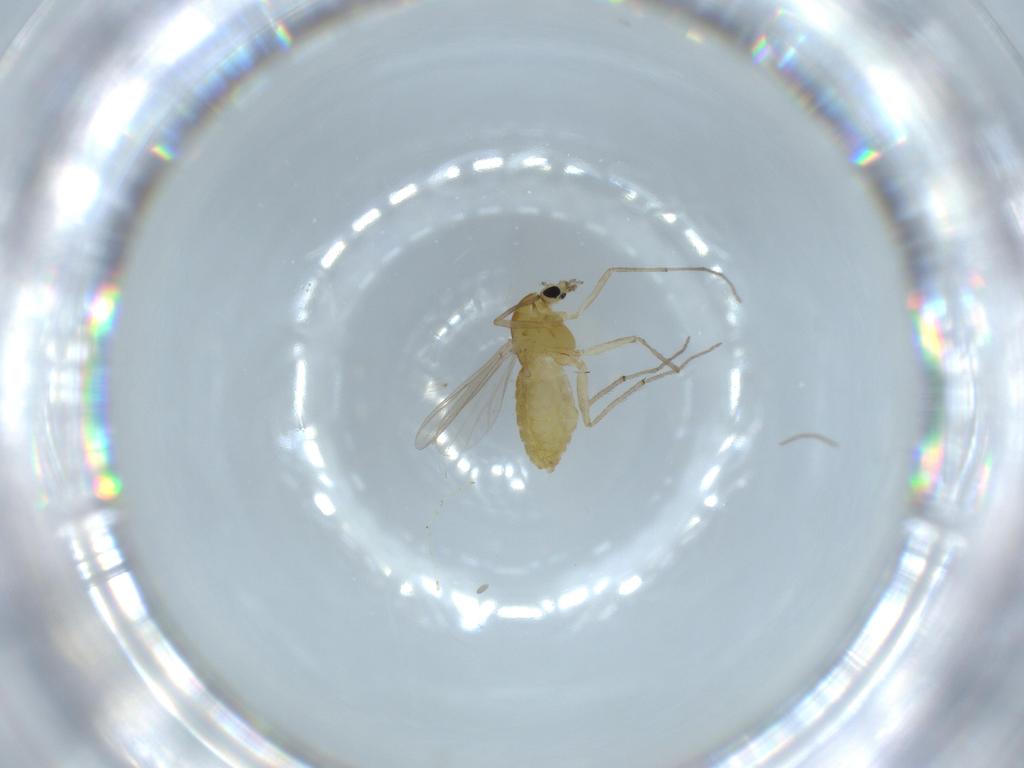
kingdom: Animalia
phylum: Arthropoda
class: Insecta
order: Diptera
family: Chironomidae
